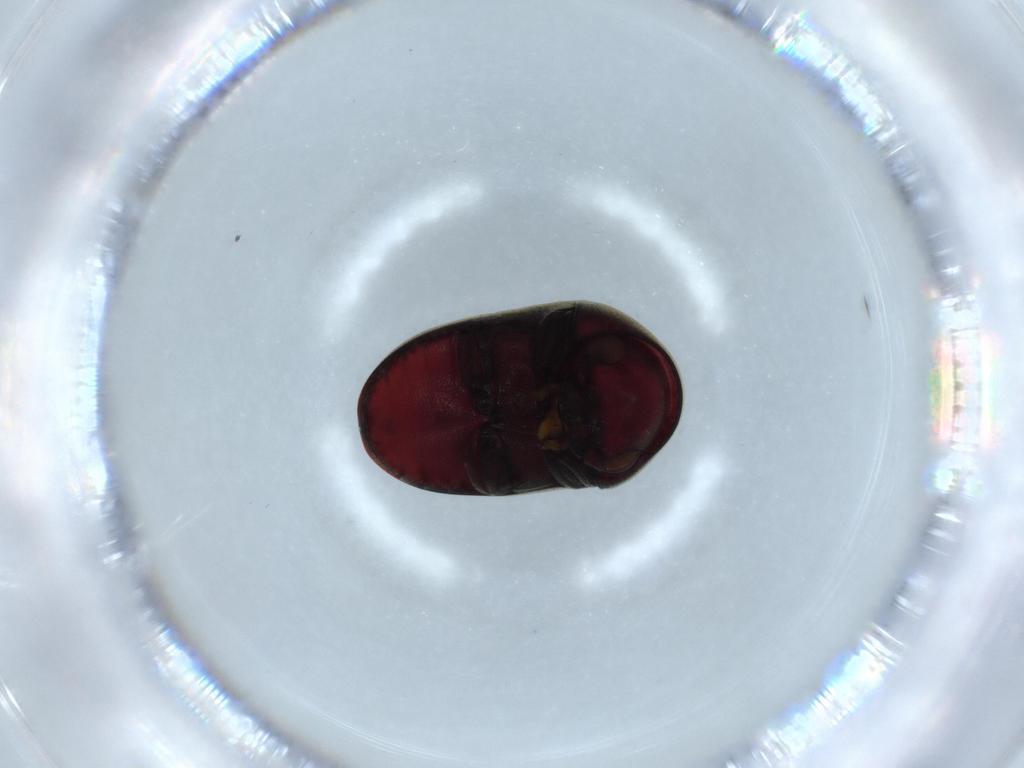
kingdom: Animalia
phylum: Arthropoda
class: Insecta
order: Coleoptera
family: Ptinidae
